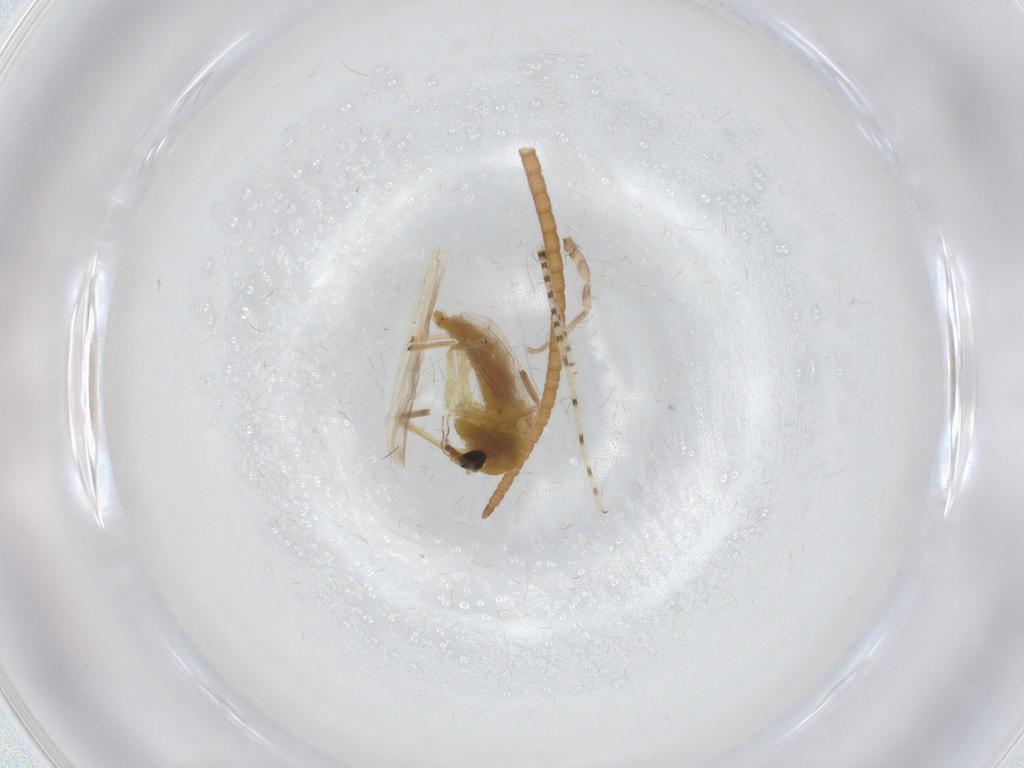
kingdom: Animalia
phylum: Arthropoda
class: Insecta
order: Diptera
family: Chironomidae
